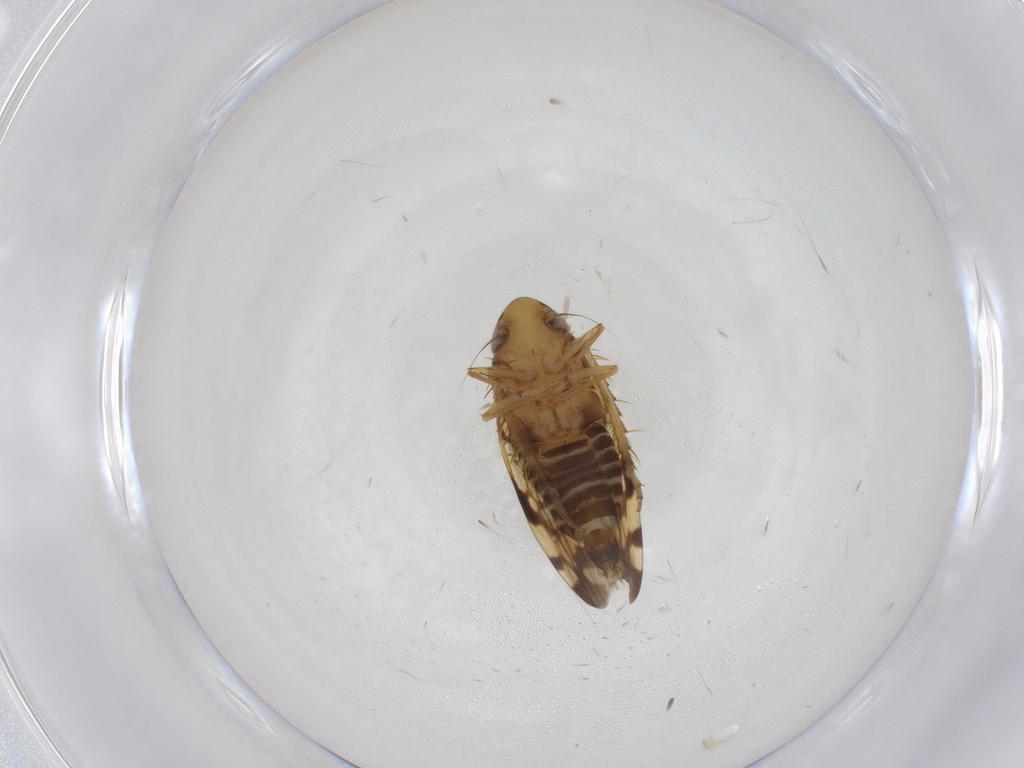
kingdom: Animalia
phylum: Arthropoda
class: Insecta
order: Hemiptera
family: Cicadellidae
